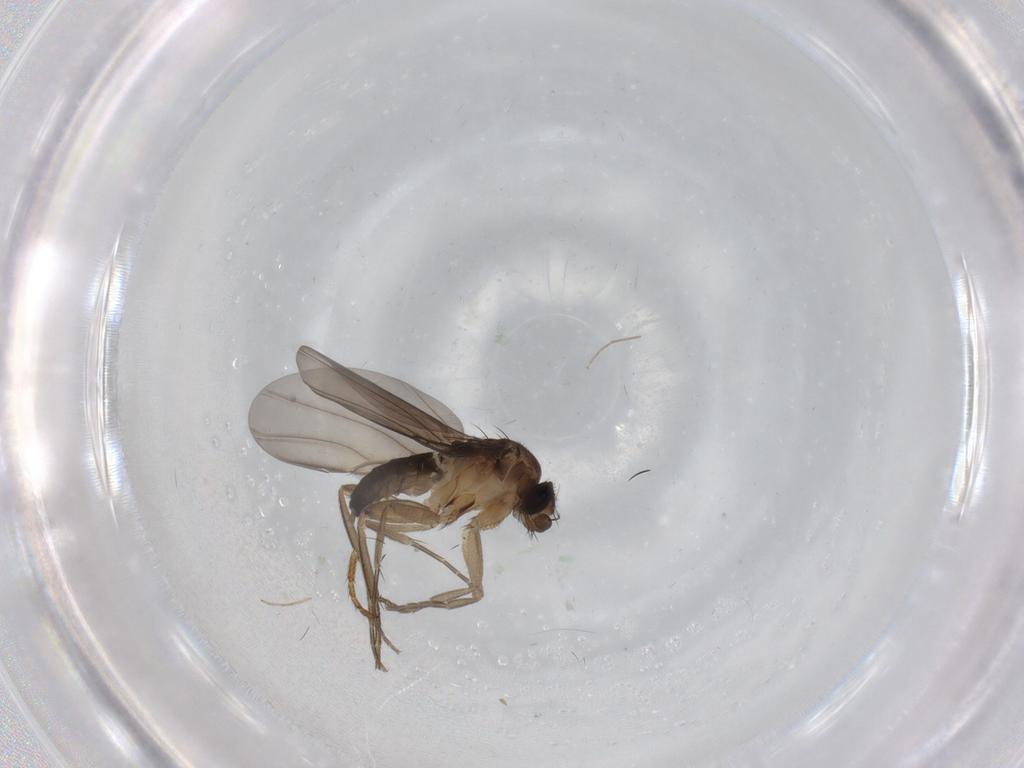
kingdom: Animalia
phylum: Arthropoda
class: Insecta
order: Diptera
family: Phoridae
